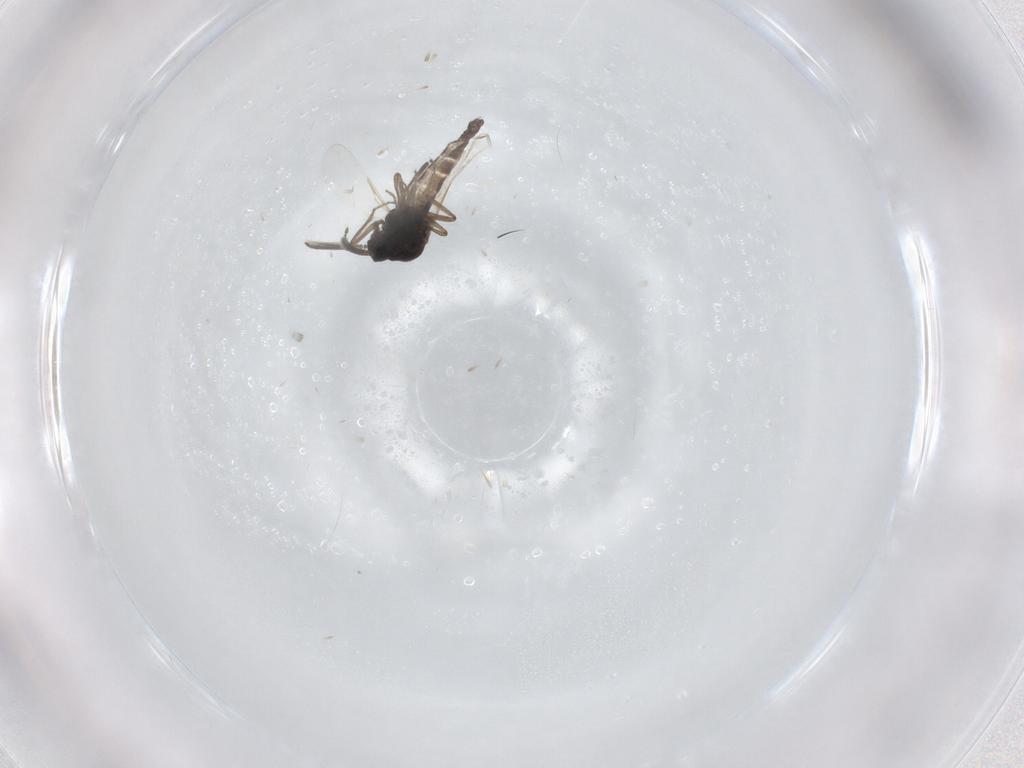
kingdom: Animalia
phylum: Arthropoda
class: Insecta
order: Diptera
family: Ceratopogonidae
